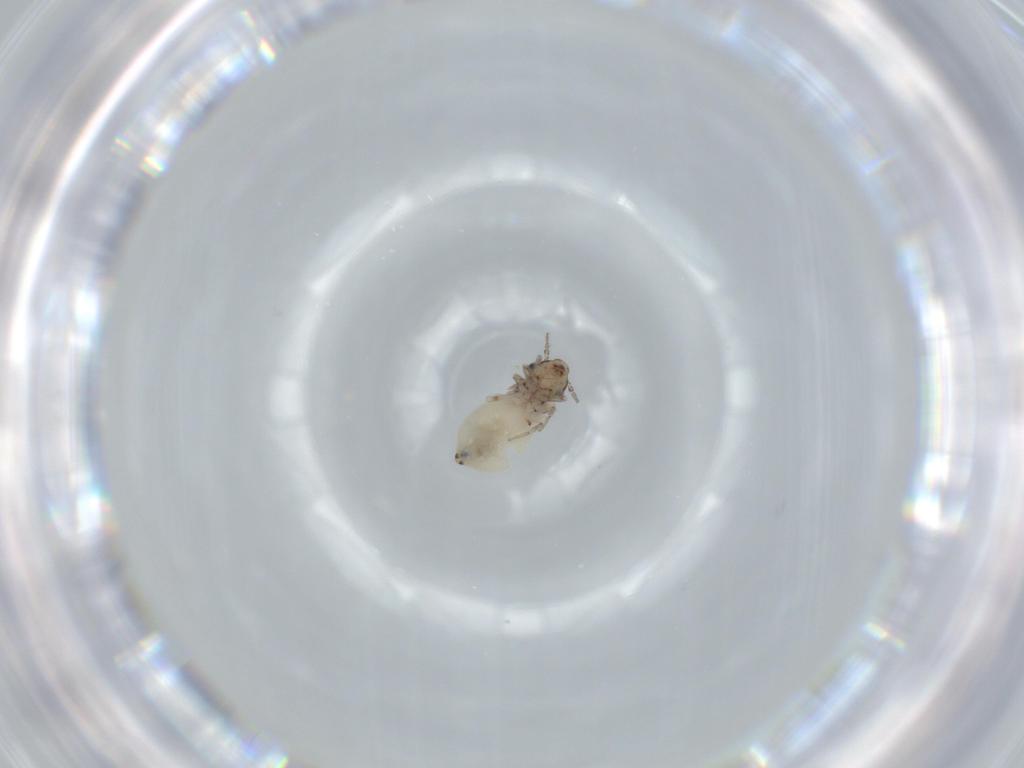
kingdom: Animalia
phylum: Arthropoda
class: Insecta
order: Psocodea
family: Lepidopsocidae
